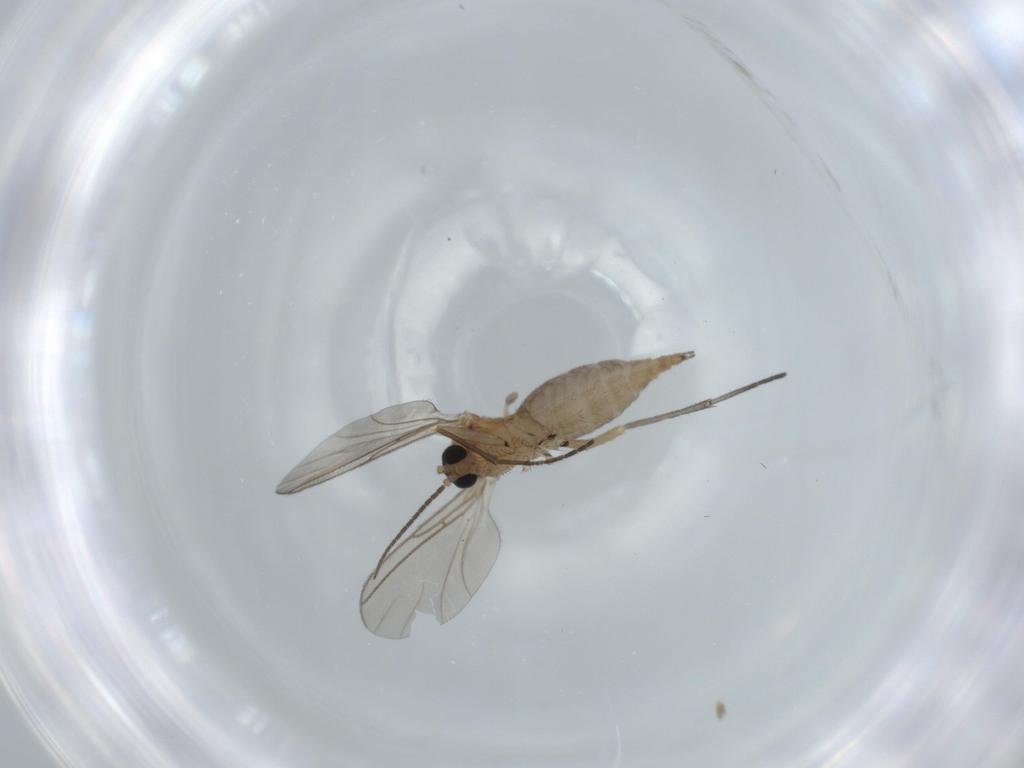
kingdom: Animalia
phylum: Arthropoda
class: Insecta
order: Diptera
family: Sciaridae
